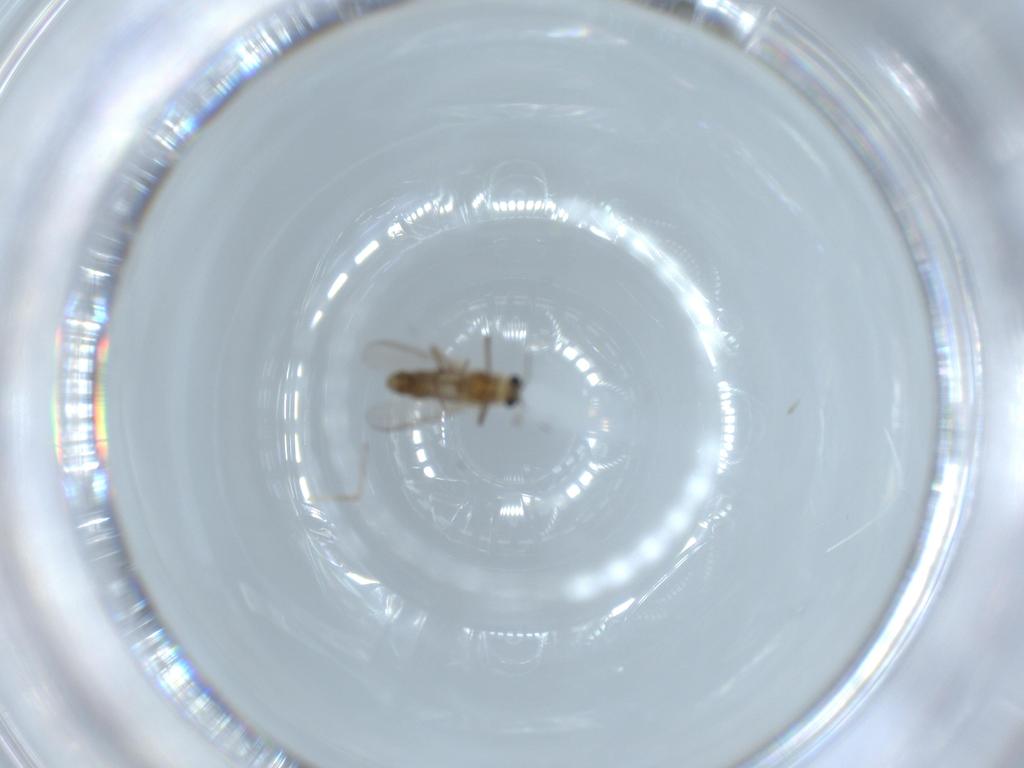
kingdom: Animalia
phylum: Arthropoda
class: Insecta
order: Diptera
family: Chironomidae
